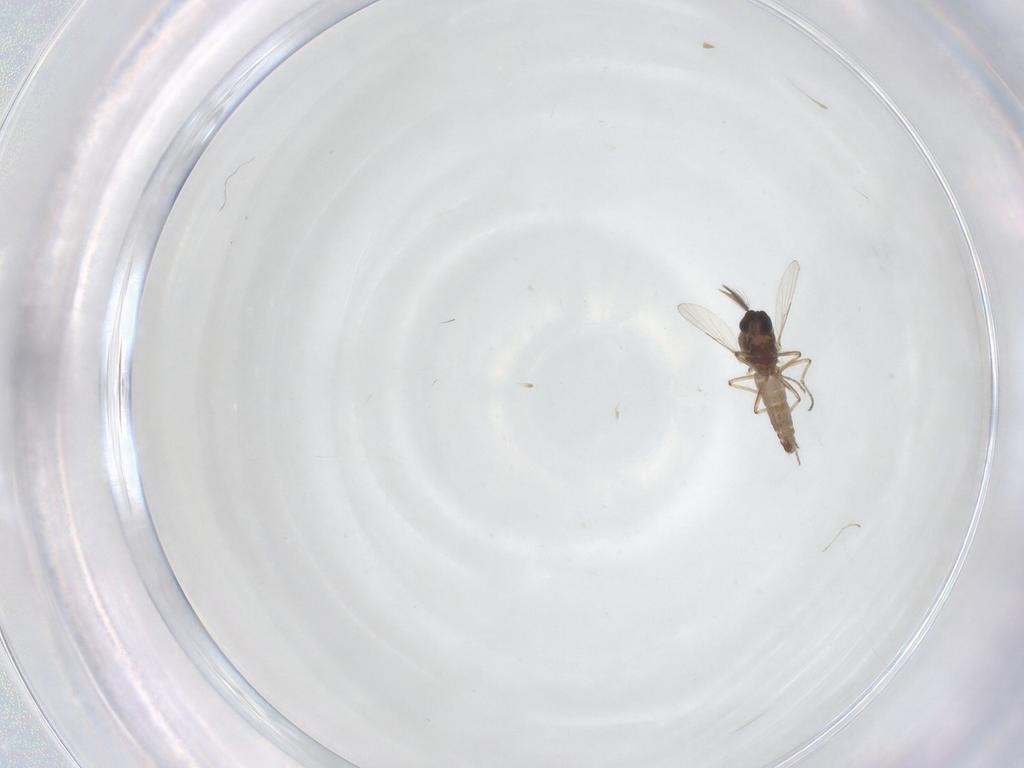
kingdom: Animalia
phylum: Arthropoda
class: Insecta
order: Diptera
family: Ceratopogonidae
